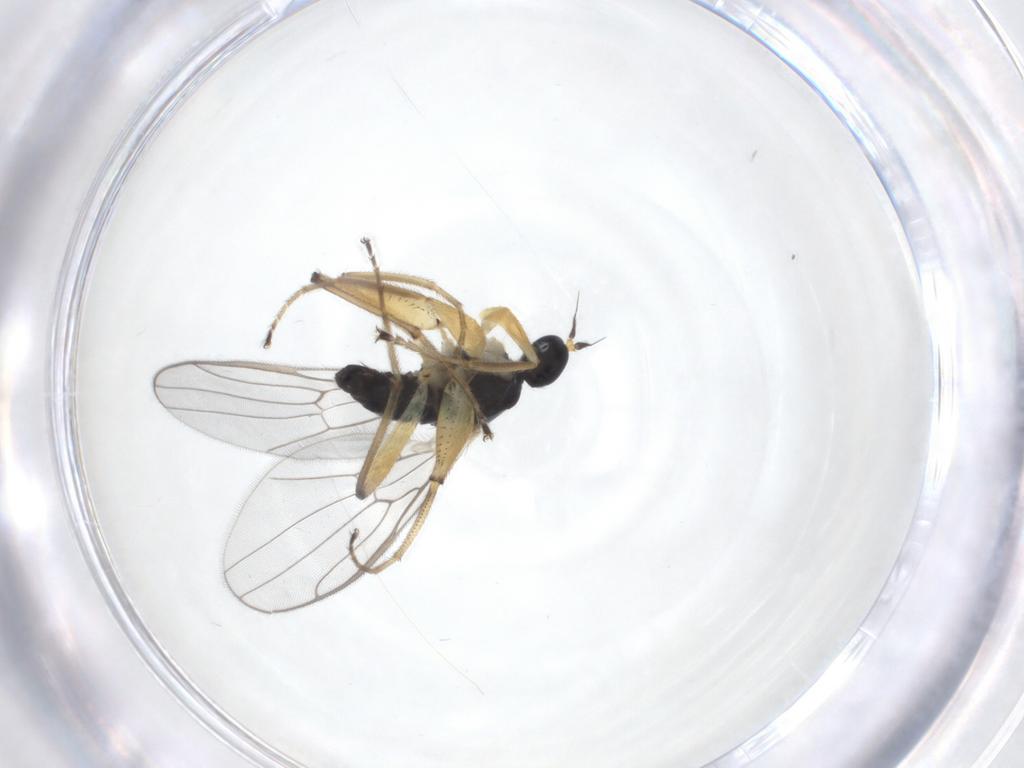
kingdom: Animalia
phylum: Arthropoda
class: Insecta
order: Diptera
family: Hybotidae
